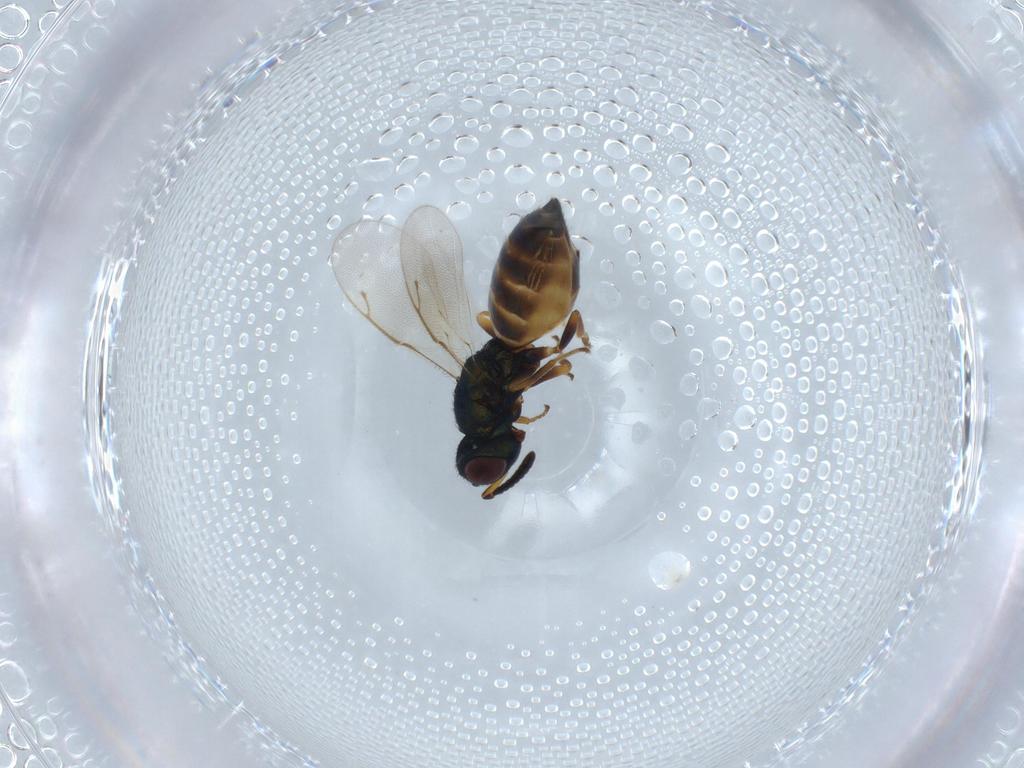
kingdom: Animalia
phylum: Arthropoda
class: Insecta
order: Hymenoptera
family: Pteromalidae
